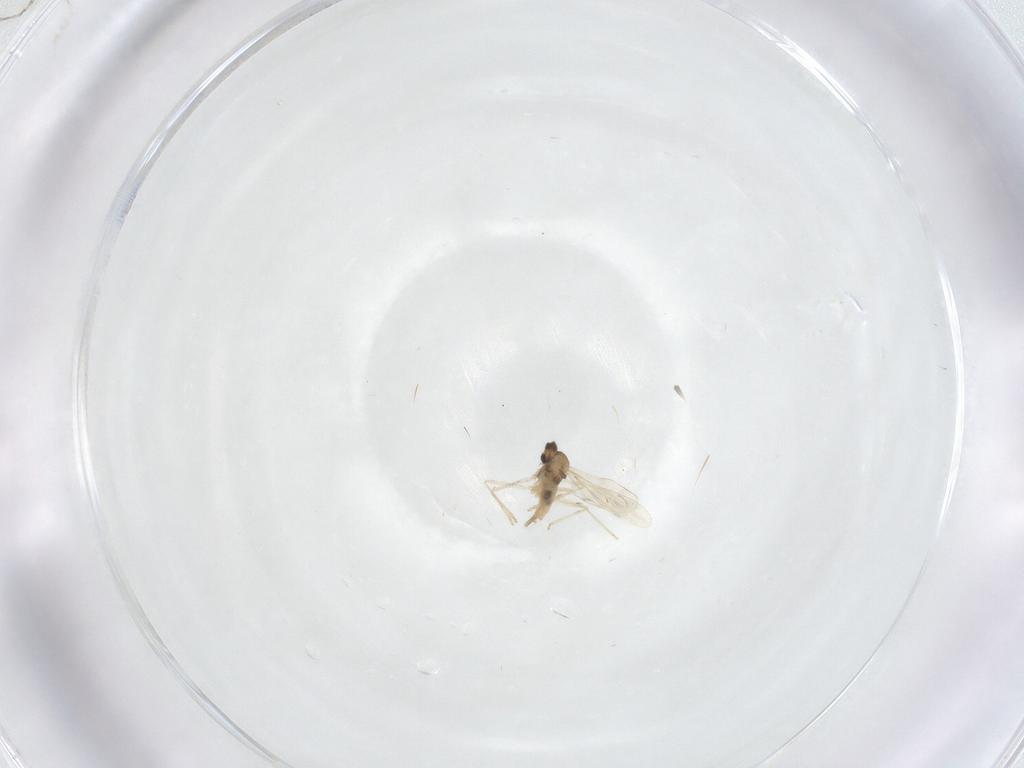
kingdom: Animalia
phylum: Arthropoda
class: Insecta
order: Diptera
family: Cecidomyiidae
